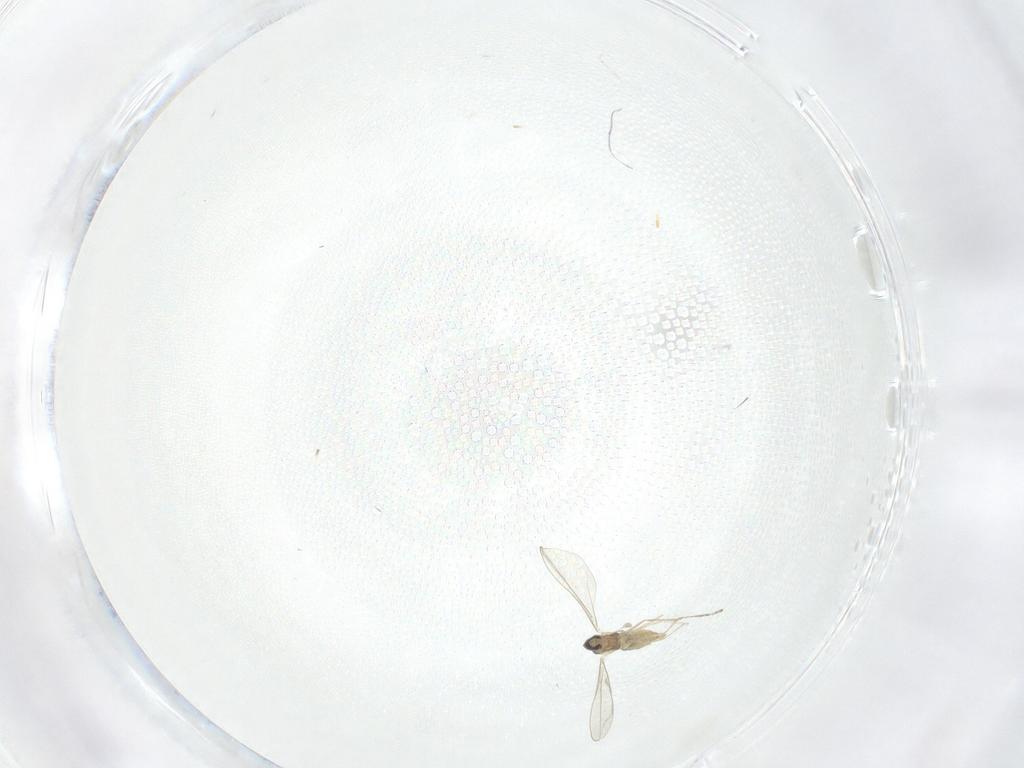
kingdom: Animalia
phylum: Arthropoda
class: Insecta
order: Diptera
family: Cecidomyiidae
